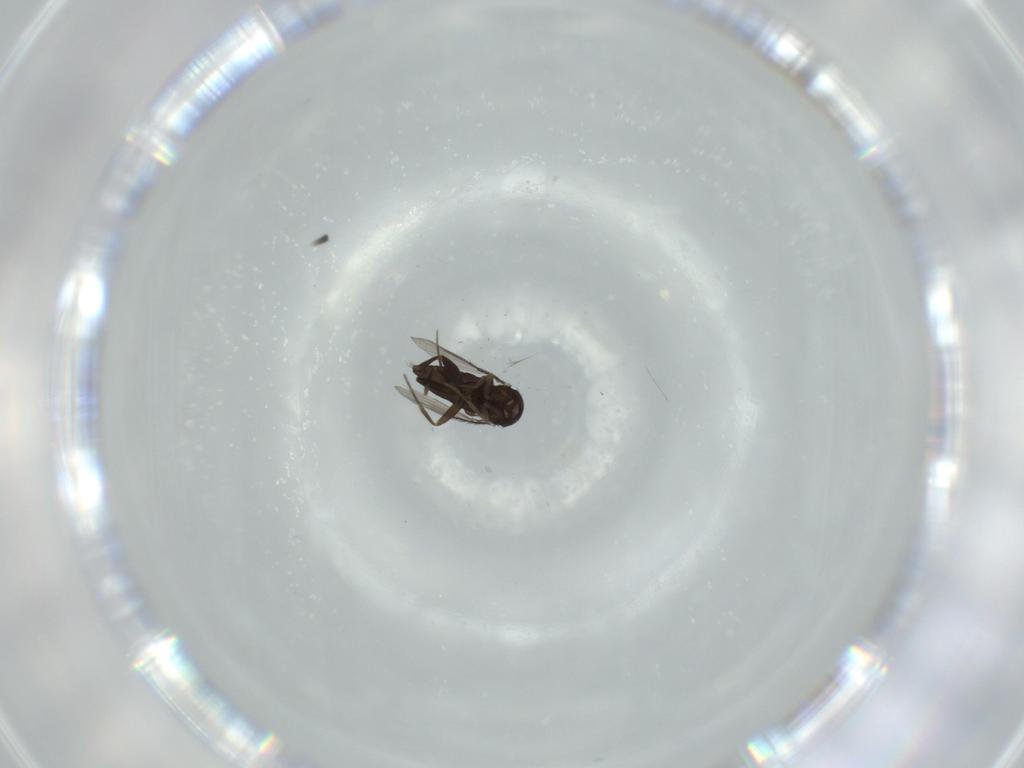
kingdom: Animalia
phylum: Arthropoda
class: Insecta
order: Diptera
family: Phoridae
